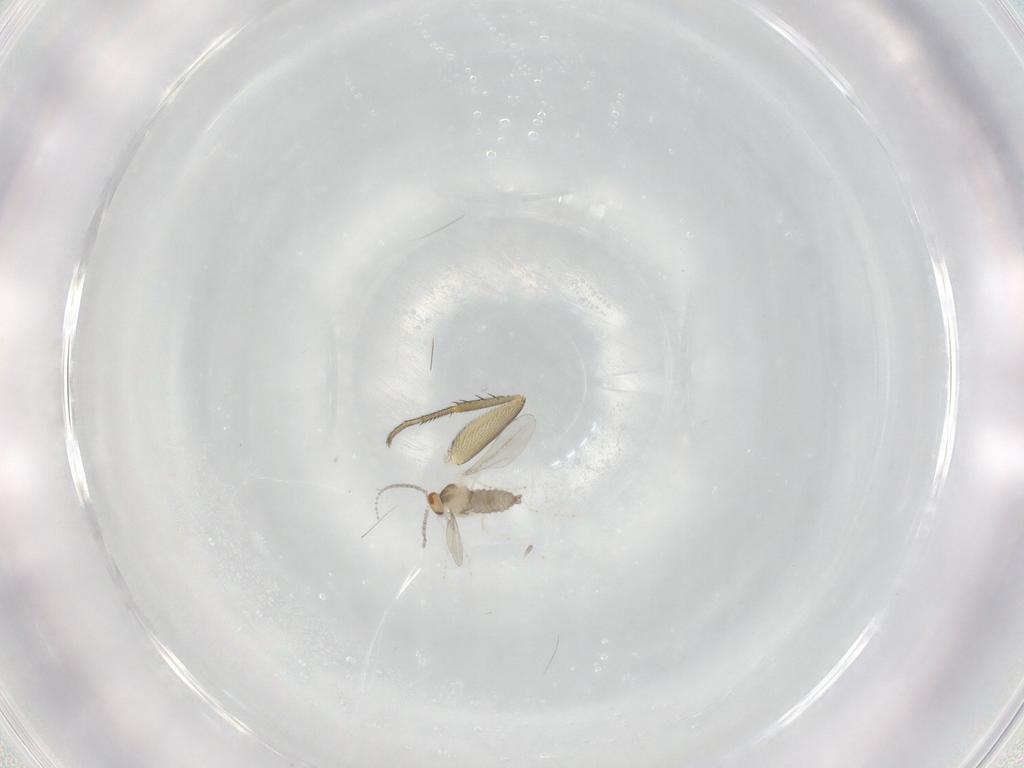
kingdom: Animalia
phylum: Arthropoda
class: Insecta
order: Diptera
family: Cecidomyiidae
